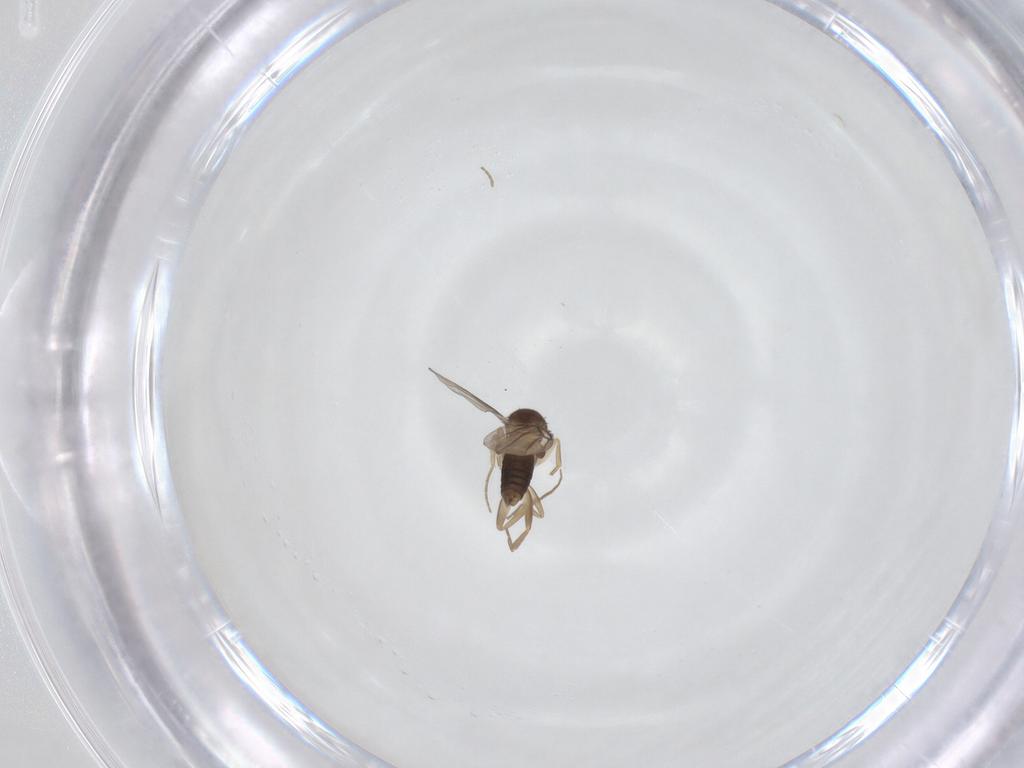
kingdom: Animalia
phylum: Arthropoda
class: Insecta
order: Diptera
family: Phoridae
